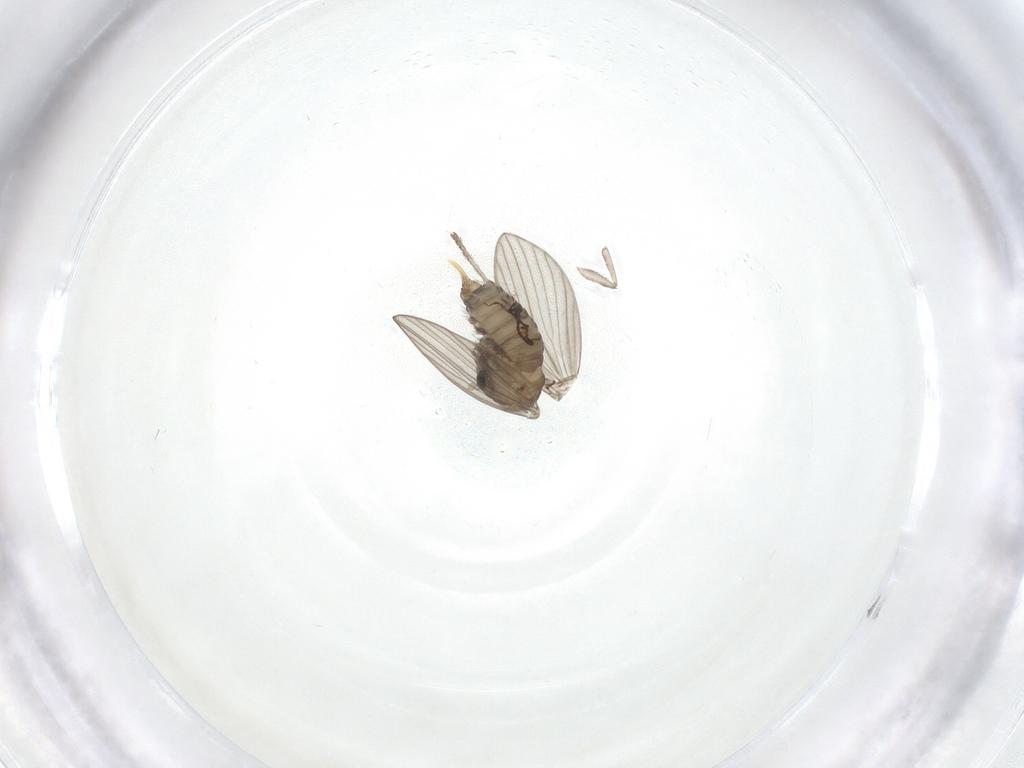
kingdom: Animalia
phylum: Arthropoda
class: Insecta
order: Diptera
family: Psychodidae
